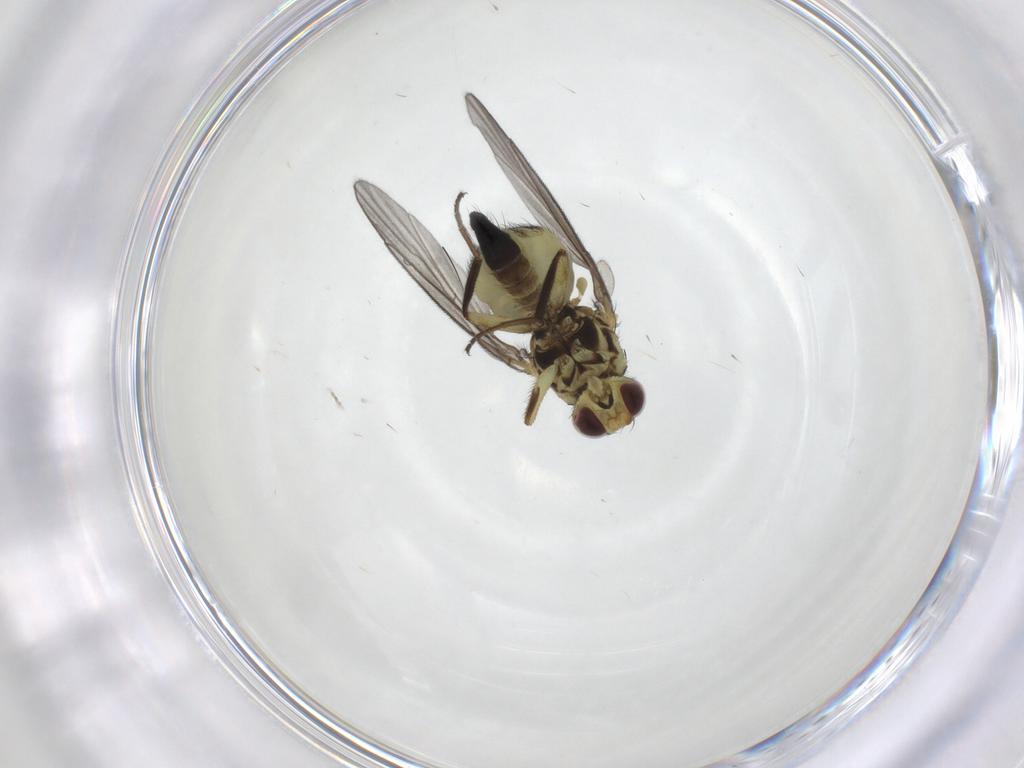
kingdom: Animalia
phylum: Arthropoda
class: Insecta
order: Diptera
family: Agromyzidae
